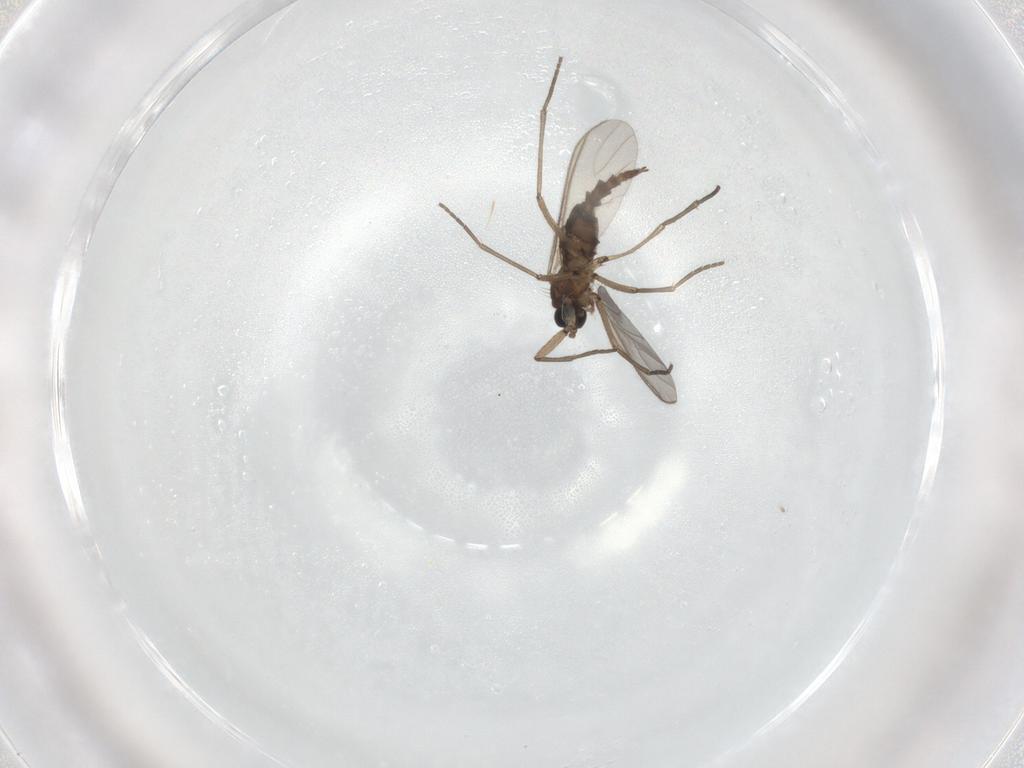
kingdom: Animalia
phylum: Arthropoda
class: Insecta
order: Diptera
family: Sciaridae
